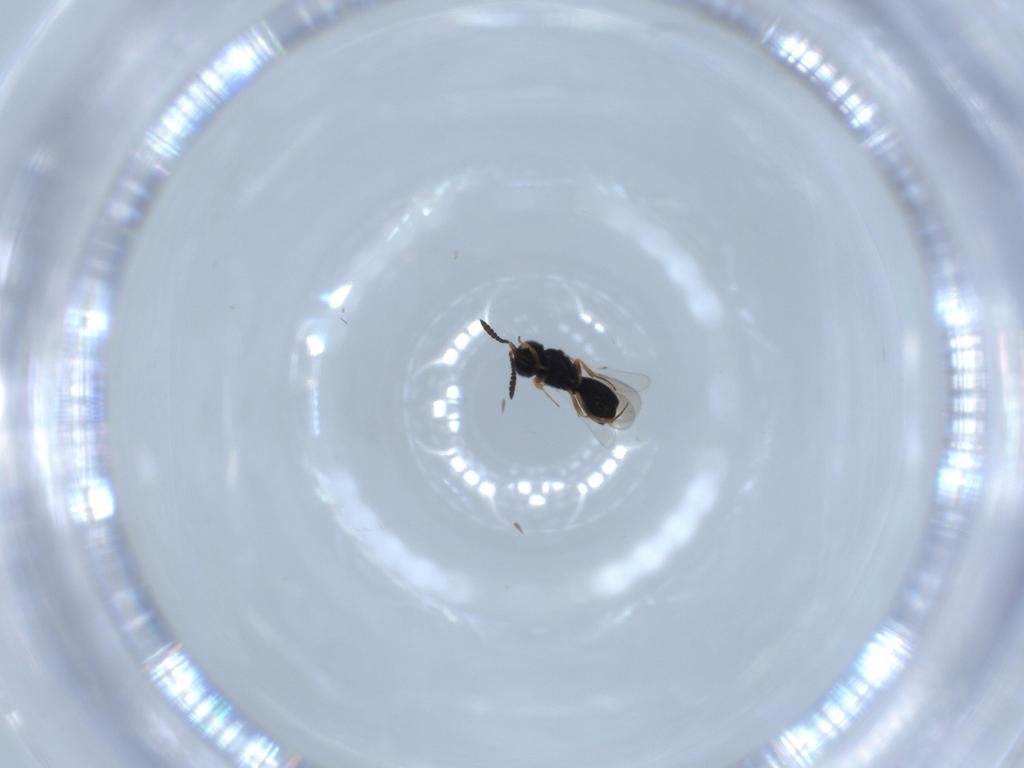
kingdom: Animalia
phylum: Arthropoda
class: Insecta
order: Hymenoptera
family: Scelionidae
